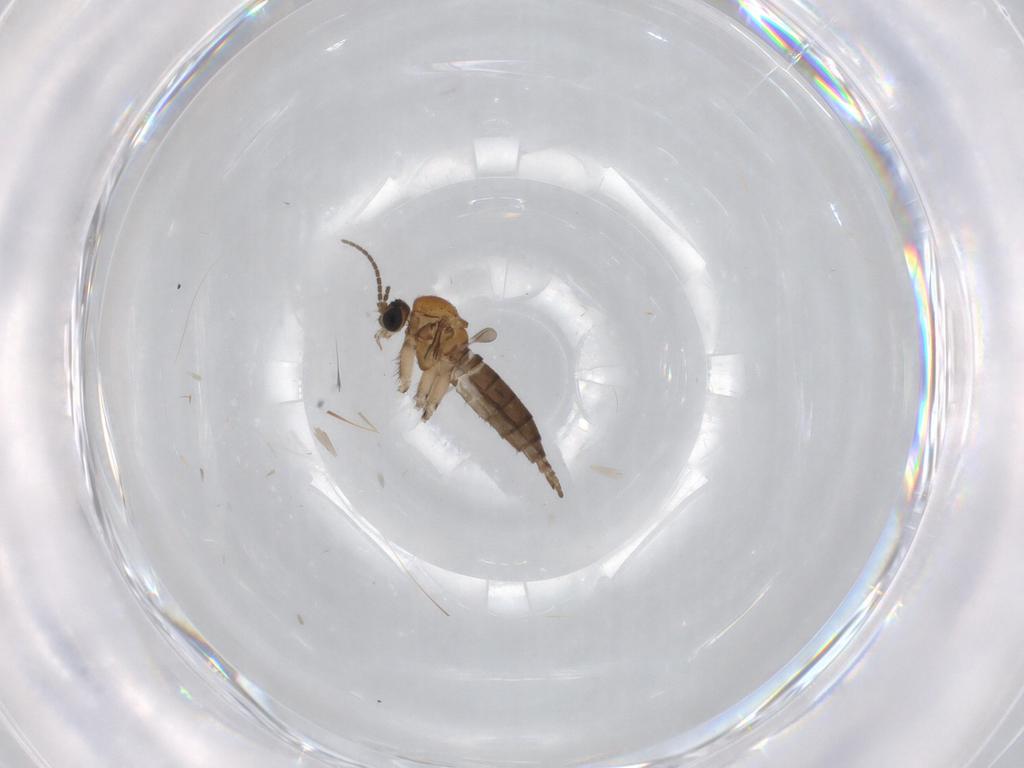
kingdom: Animalia
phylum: Arthropoda
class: Insecta
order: Diptera
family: Sciaridae
